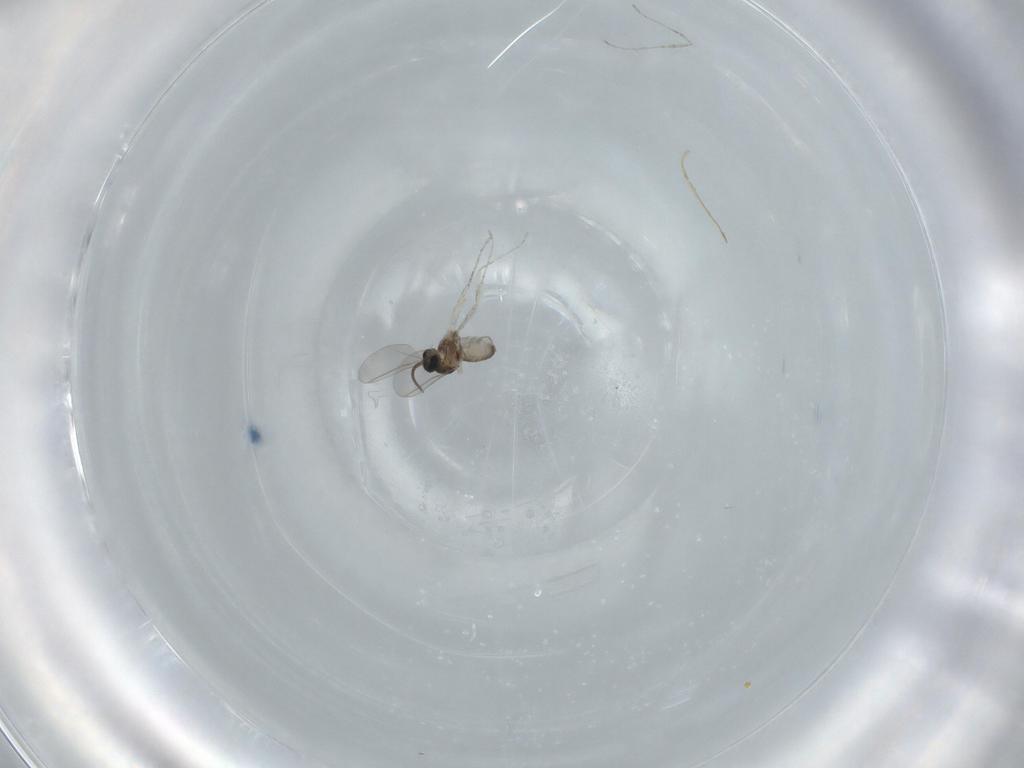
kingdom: Animalia
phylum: Arthropoda
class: Insecta
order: Diptera
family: Cecidomyiidae
